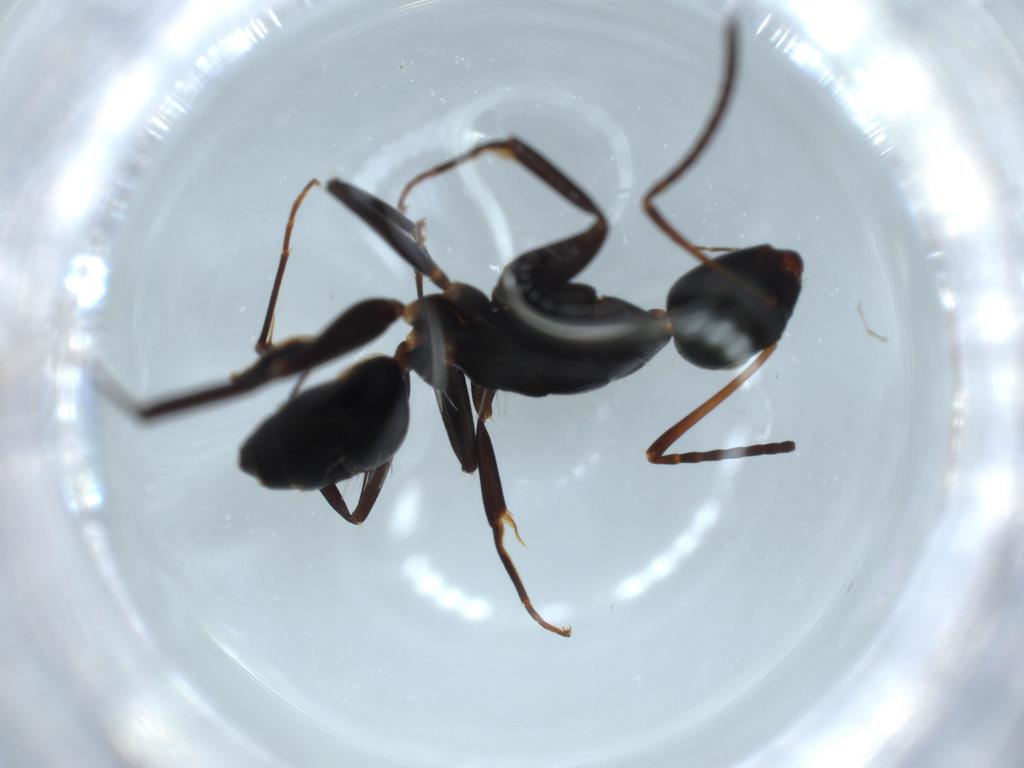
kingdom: Animalia
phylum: Arthropoda
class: Insecta
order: Hymenoptera
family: Formicidae
